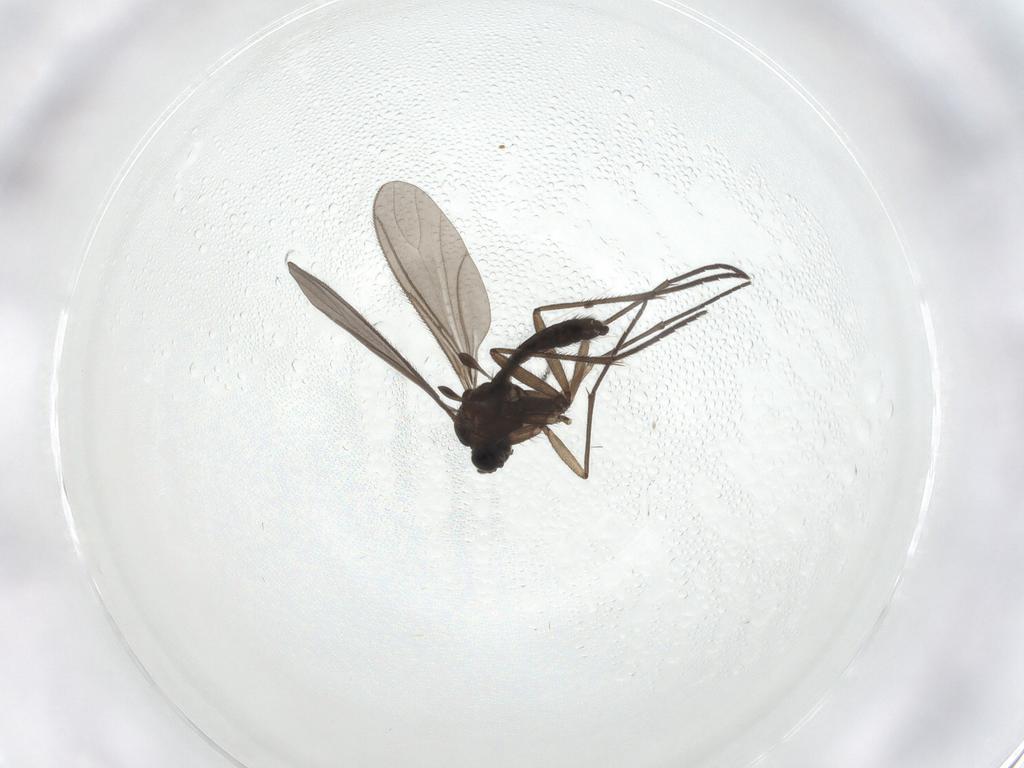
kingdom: Animalia
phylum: Arthropoda
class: Insecta
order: Diptera
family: Sciaridae
